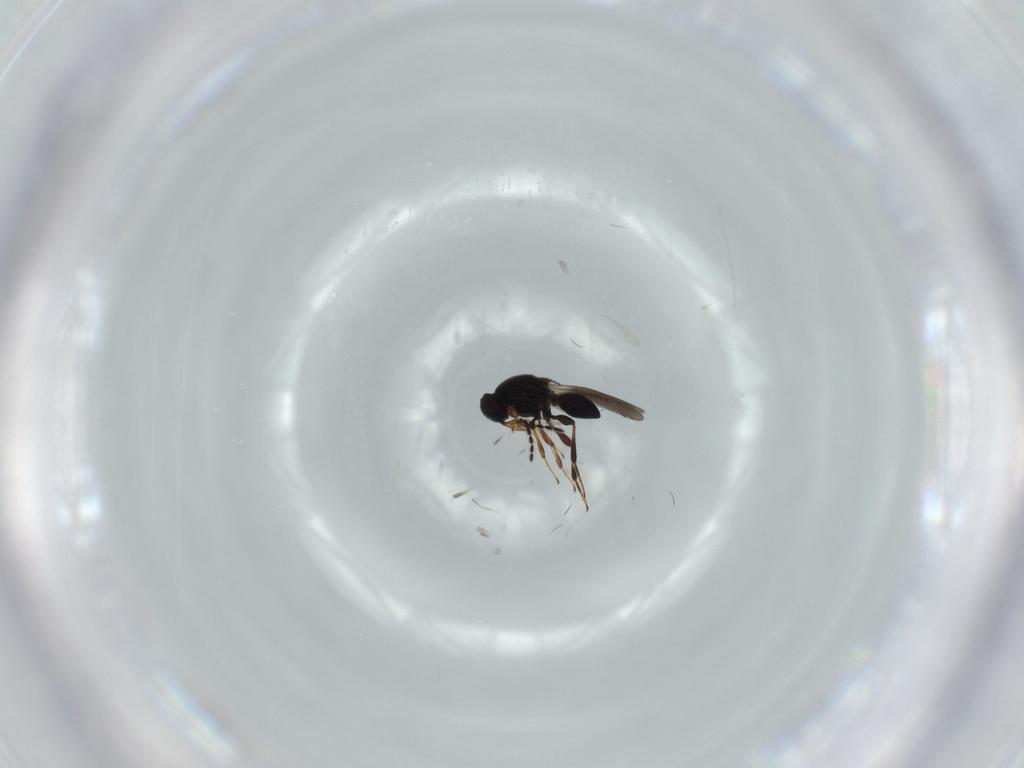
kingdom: Animalia
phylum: Arthropoda
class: Insecta
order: Hymenoptera
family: Platygastridae
